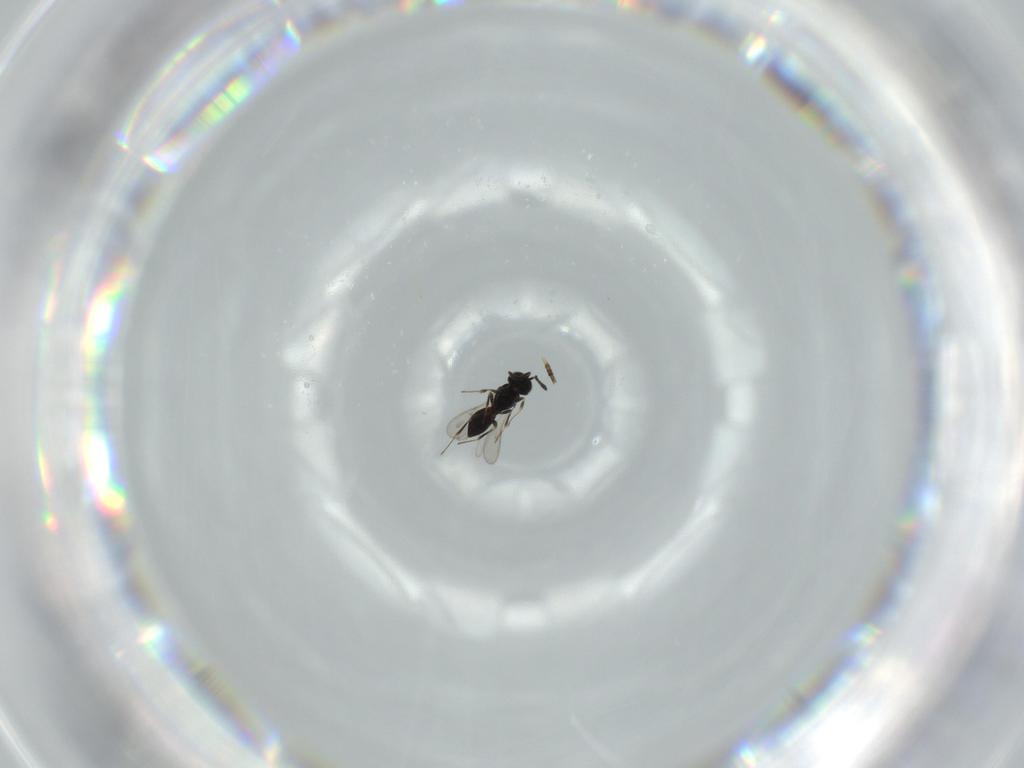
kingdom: Animalia
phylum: Arthropoda
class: Insecta
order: Hymenoptera
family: Scelionidae
